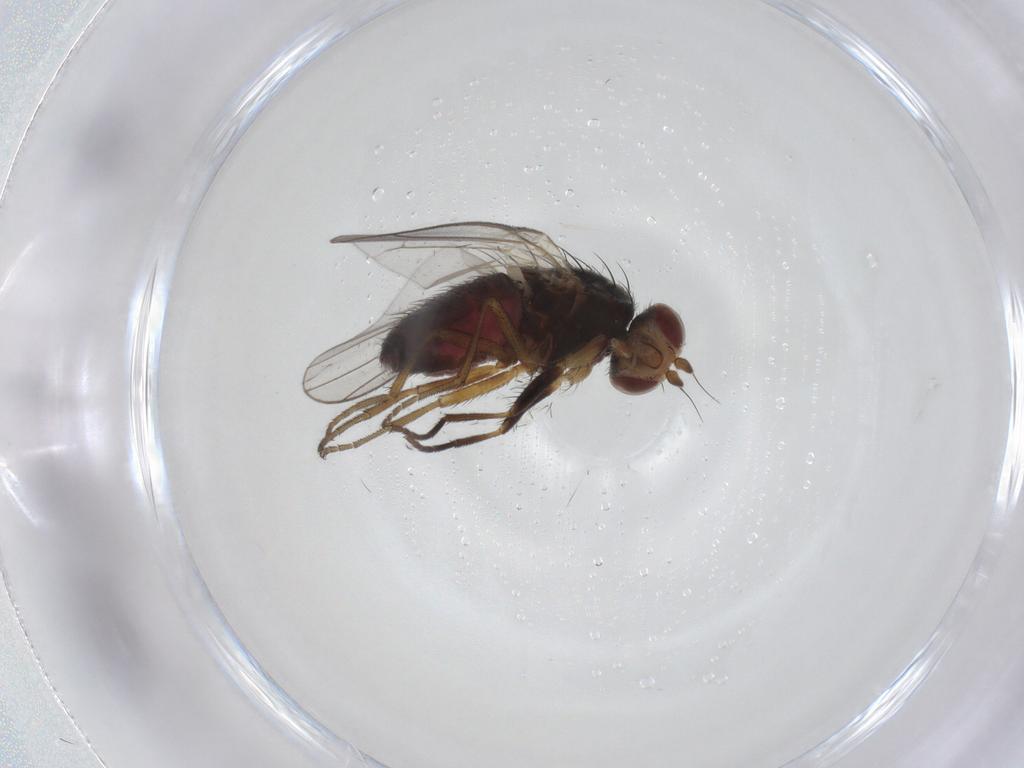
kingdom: Animalia
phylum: Arthropoda
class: Insecta
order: Diptera
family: Heleomyzidae
